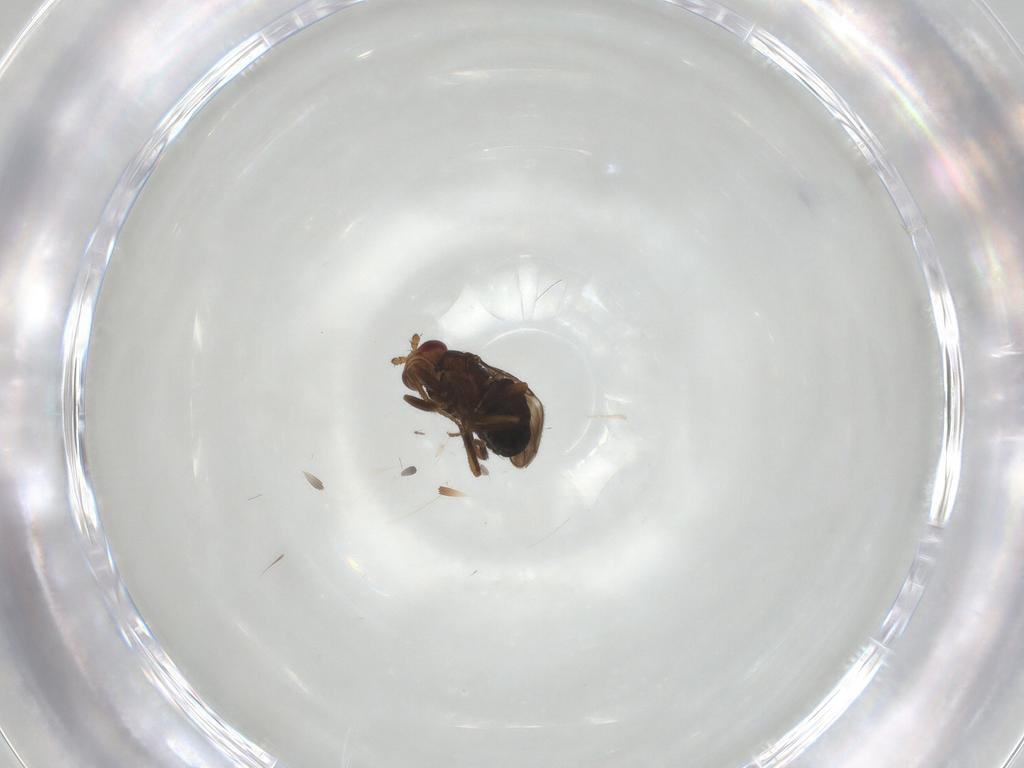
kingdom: Animalia
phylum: Arthropoda
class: Insecta
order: Diptera
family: Sphaeroceridae
